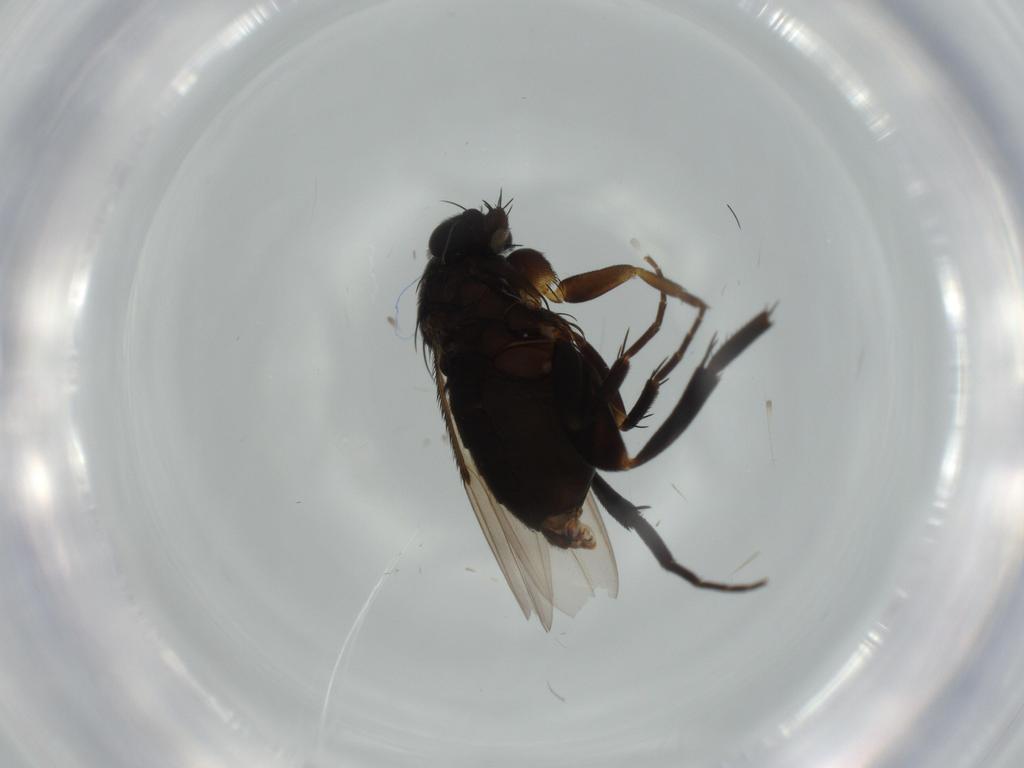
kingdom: Animalia
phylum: Arthropoda
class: Insecta
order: Diptera
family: Phoridae
